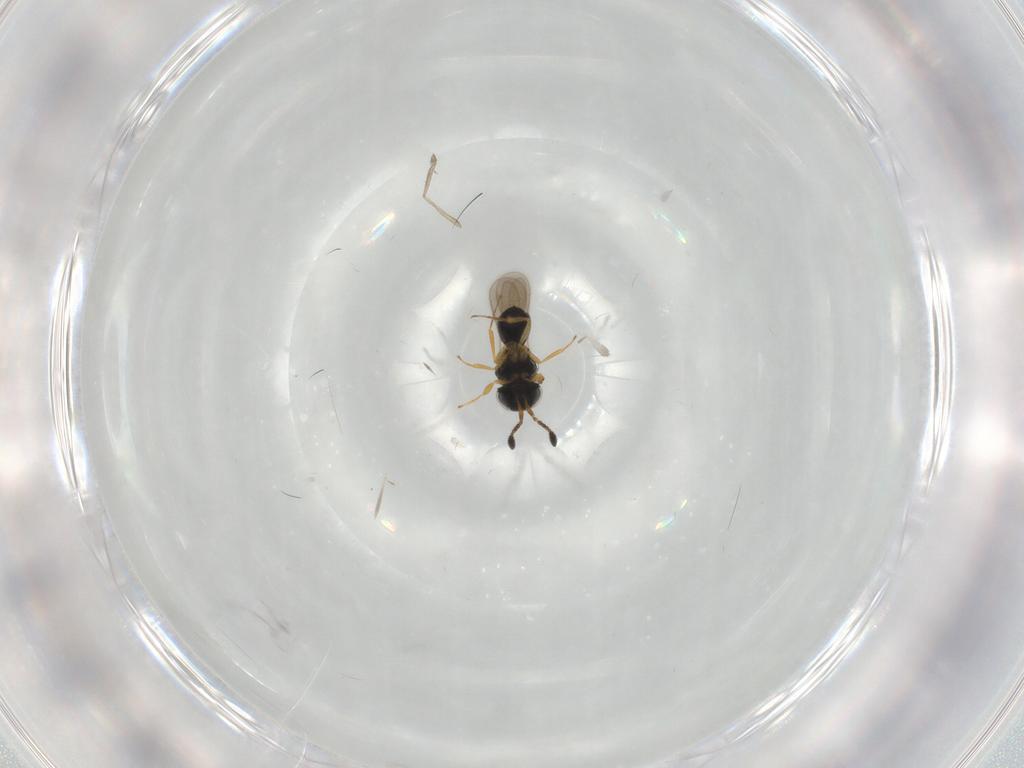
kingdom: Animalia
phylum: Arthropoda
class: Insecta
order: Hymenoptera
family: Scelionidae
